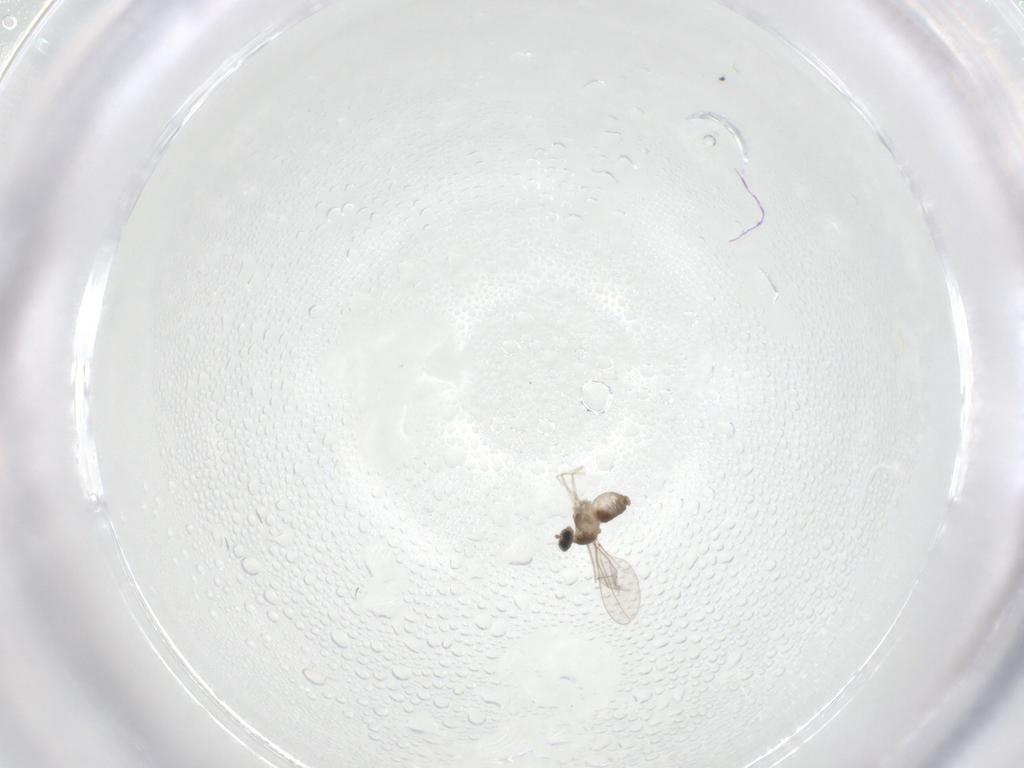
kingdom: Animalia
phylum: Arthropoda
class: Insecta
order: Diptera
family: Cecidomyiidae
